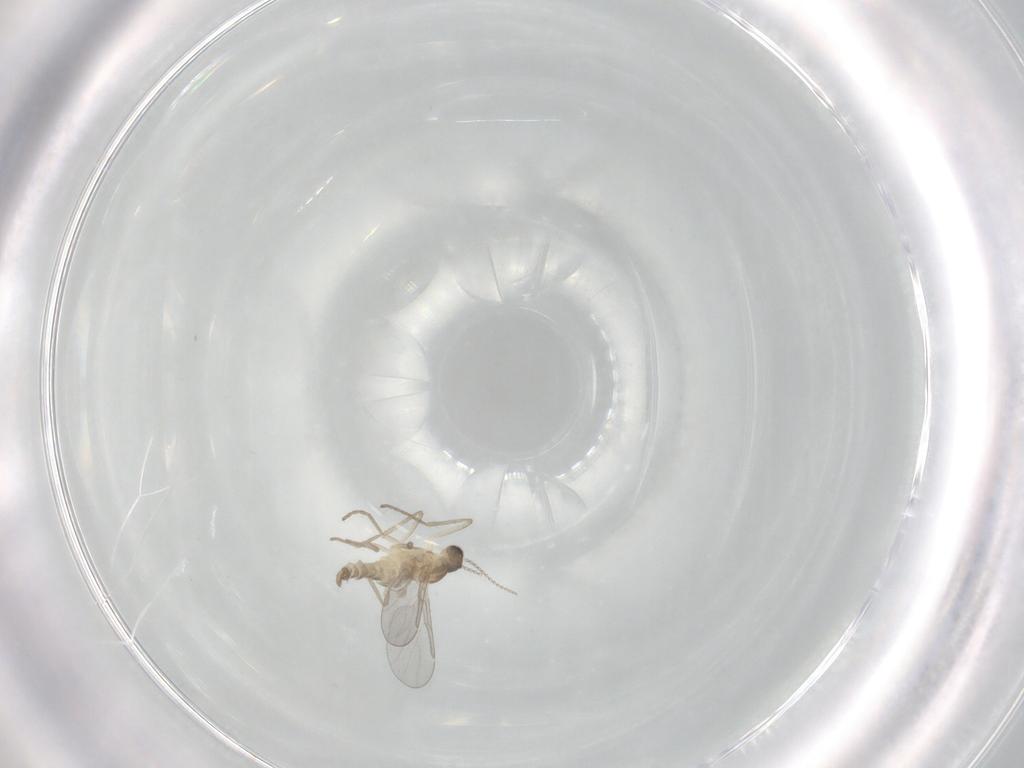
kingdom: Animalia
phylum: Arthropoda
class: Insecta
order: Diptera
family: Cecidomyiidae
